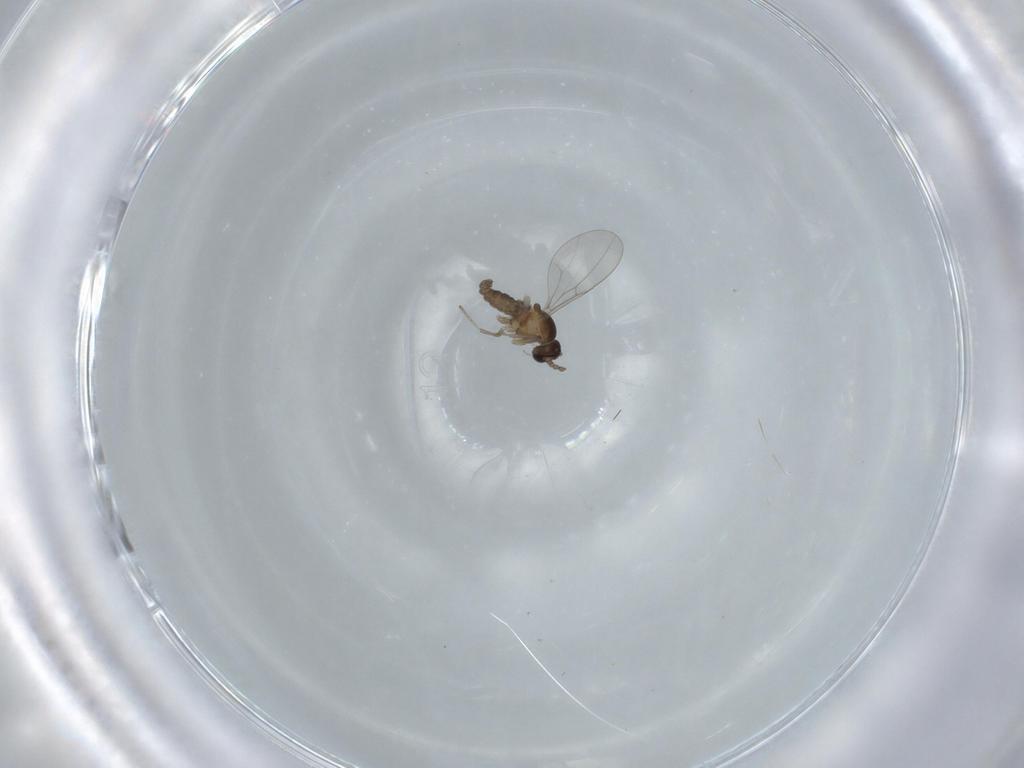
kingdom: Animalia
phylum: Arthropoda
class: Insecta
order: Diptera
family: Cecidomyiidae
